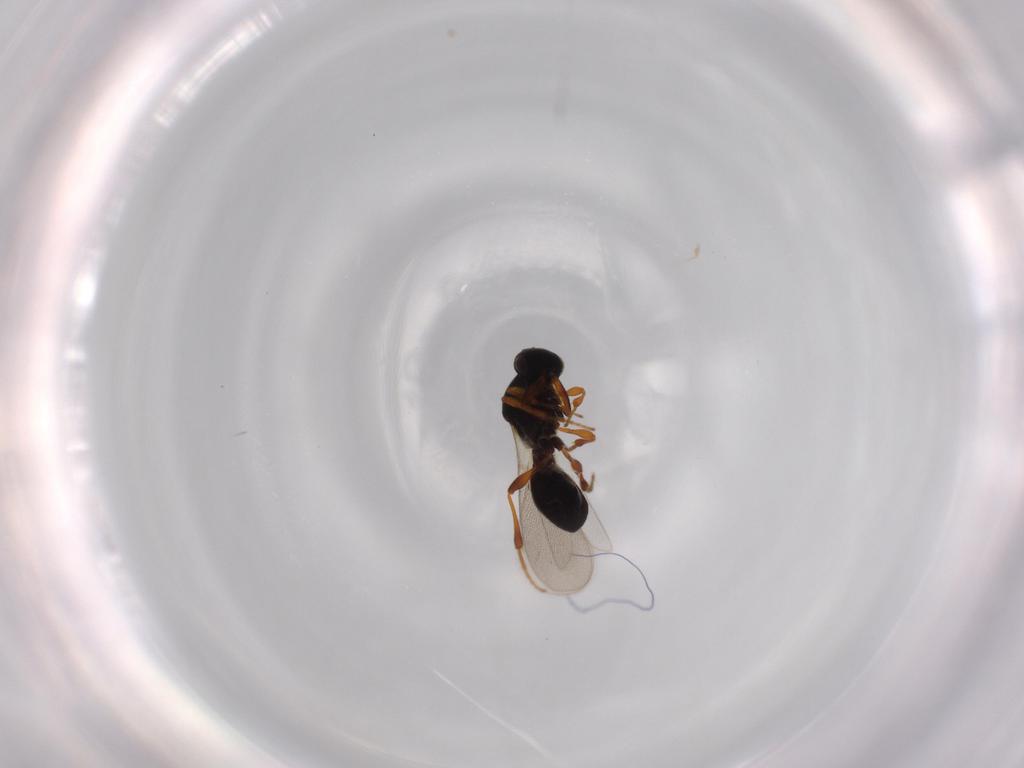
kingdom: Animalia
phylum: Arthropoda
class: Insecta
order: Hymenoptera
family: Platygastridae
